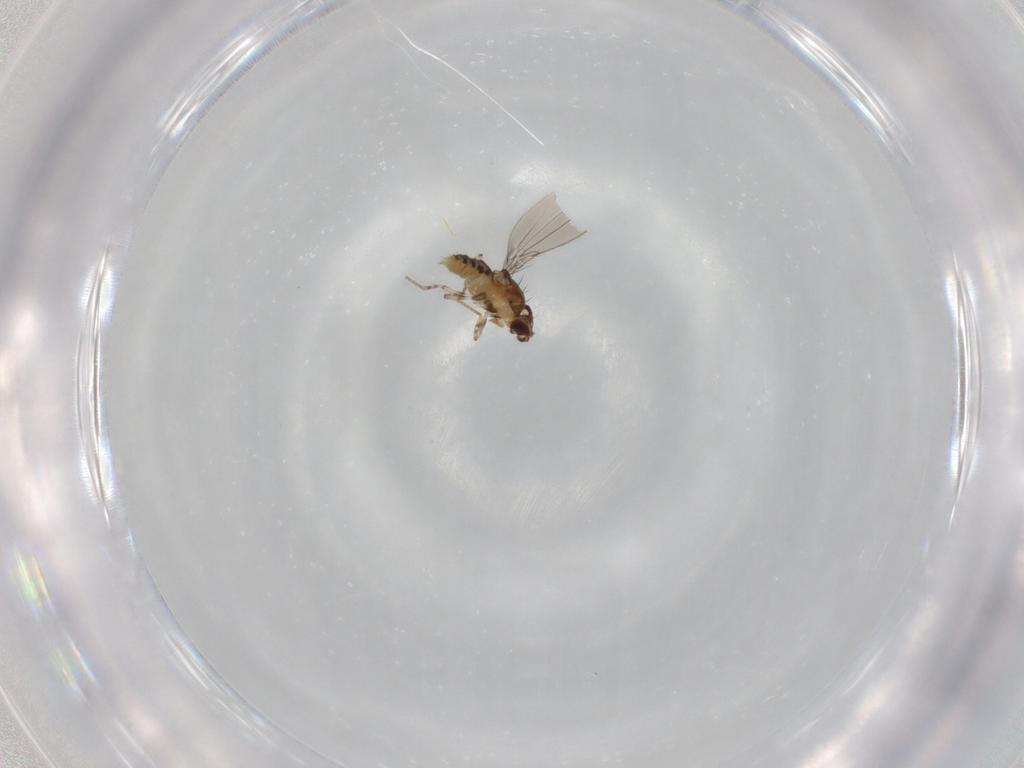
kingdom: Animalia
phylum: Arthropoda
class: Insecta
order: Diptera
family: Asteiidae
